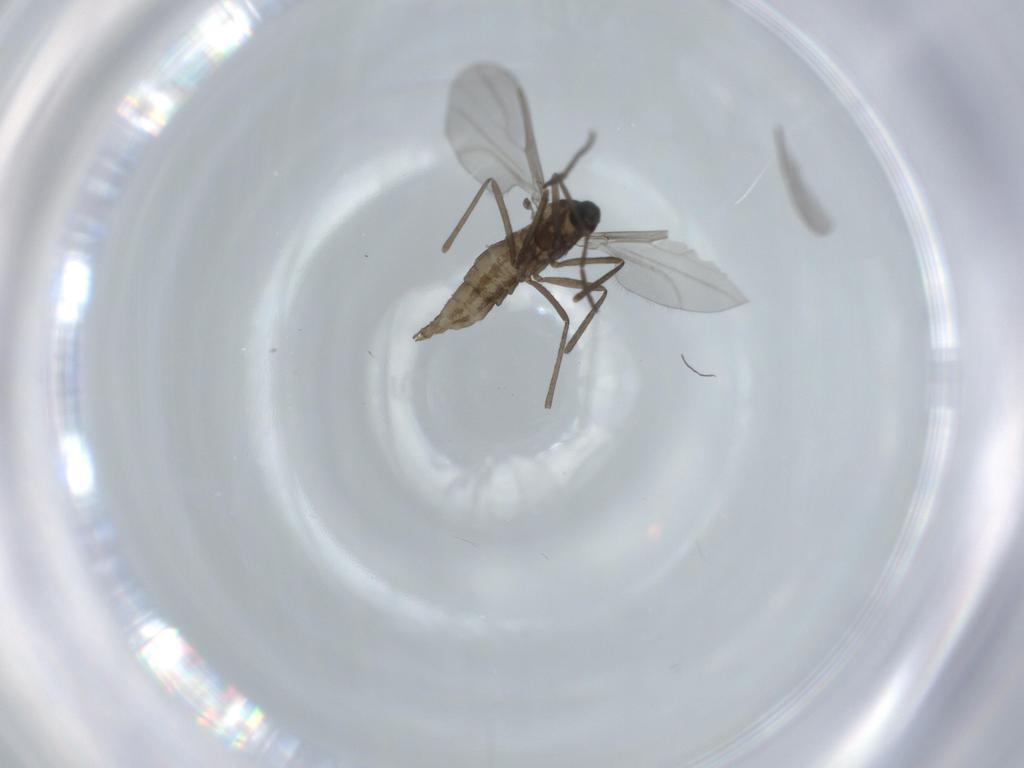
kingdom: Animalia
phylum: Arthropoda
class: Insecta
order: Diptera
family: Cecidomyiidae
